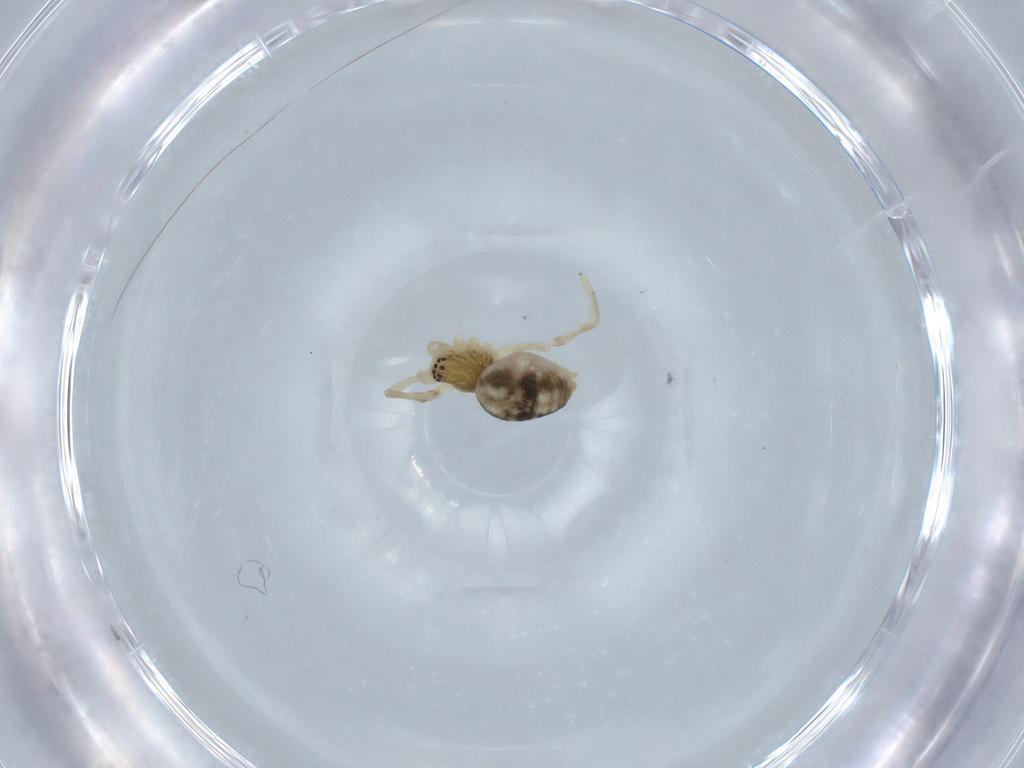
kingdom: Animalia
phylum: Arthropoda
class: Arachnida
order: Araneae
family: Dictynidae
